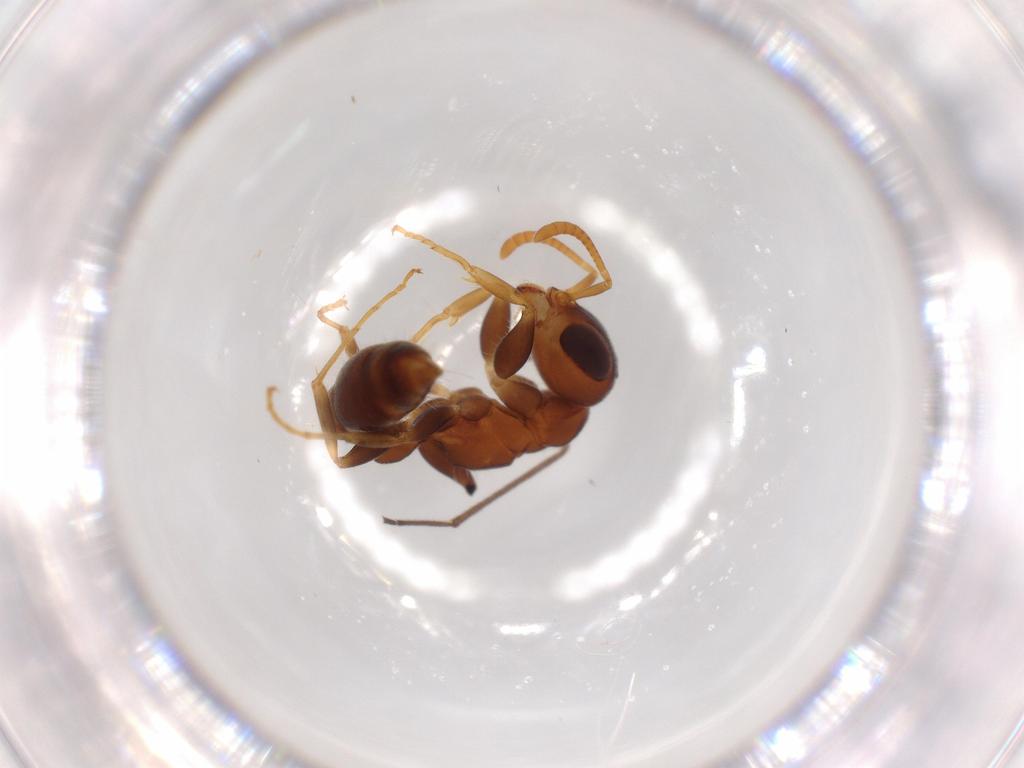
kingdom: Animalia
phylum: Arthropoda
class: Insecta
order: Hymenoptera
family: Formicidae
